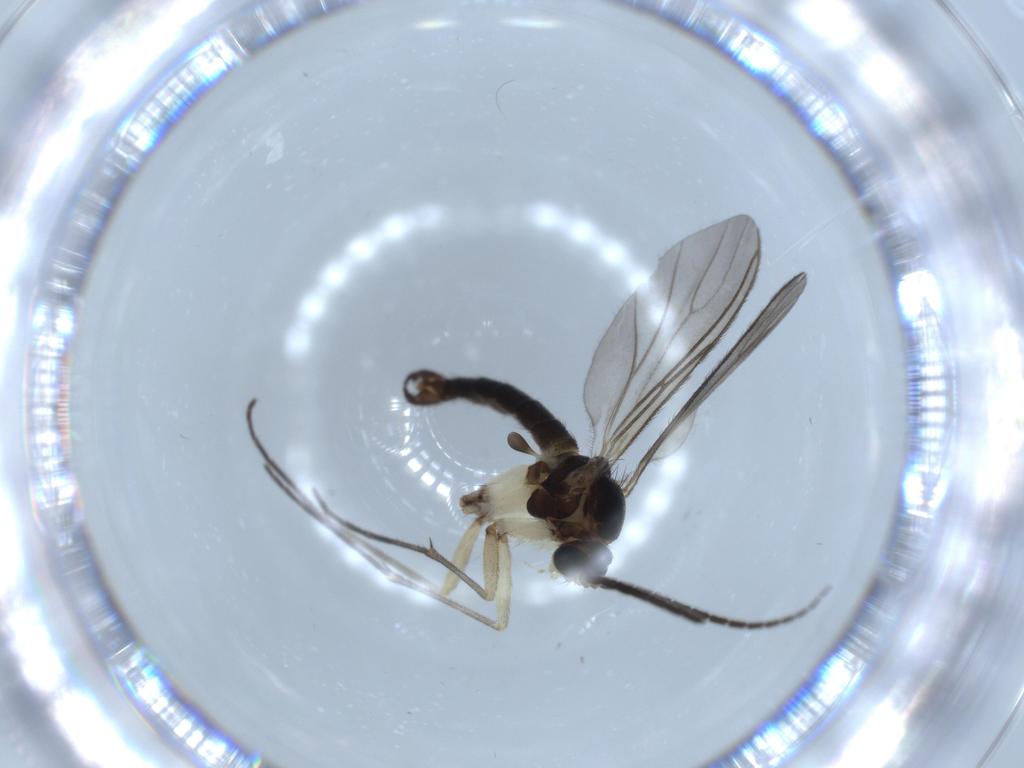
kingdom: Animalia
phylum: Arthropoda
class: Insecta
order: Diptera
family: Sciaridae
